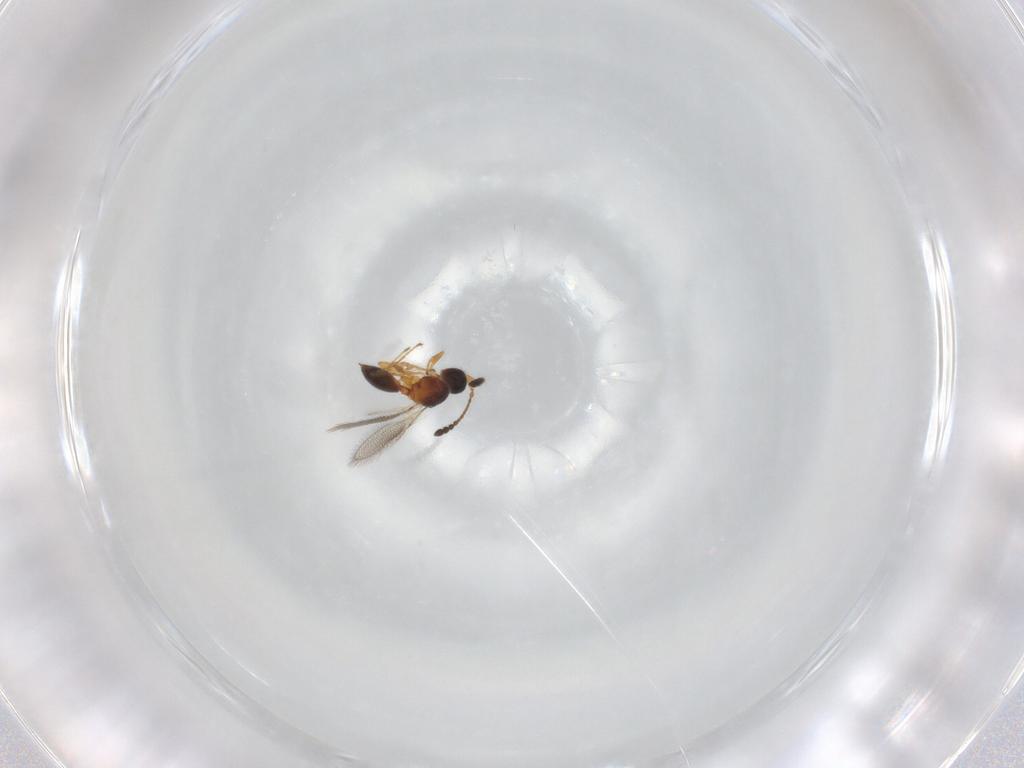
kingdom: Animalia
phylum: Arthropoda
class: Insecta
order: Hymenoptera
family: Diapriidae
